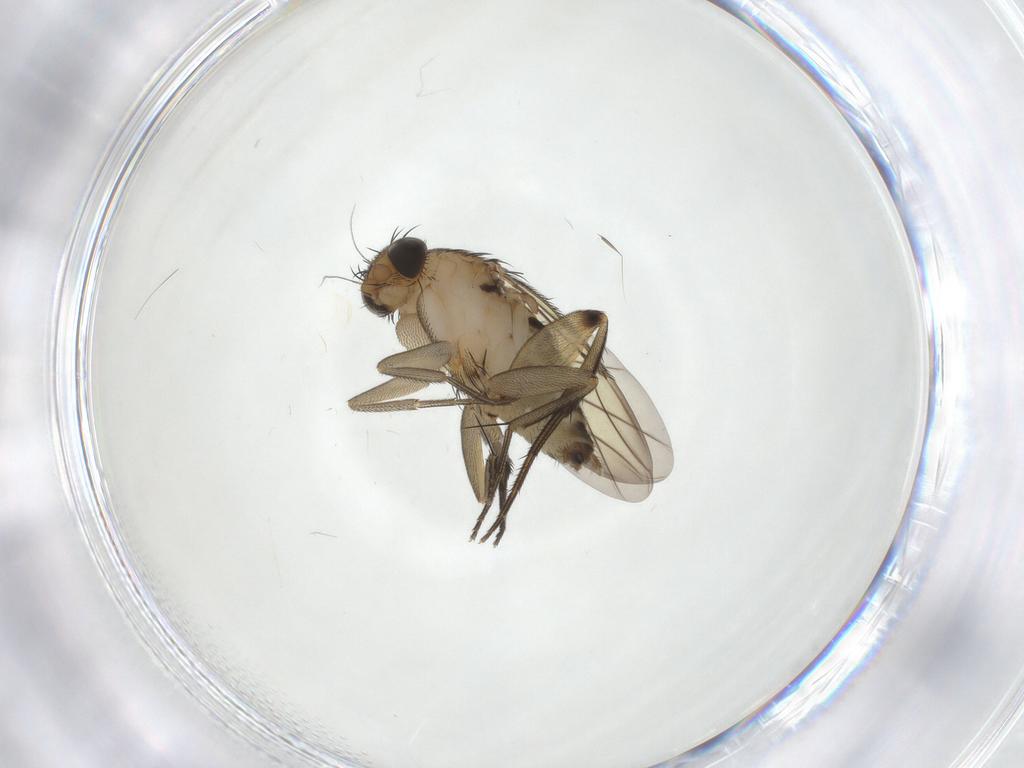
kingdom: Animalia
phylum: Arthropoda
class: Insecta
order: Diptera
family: Phoridae
